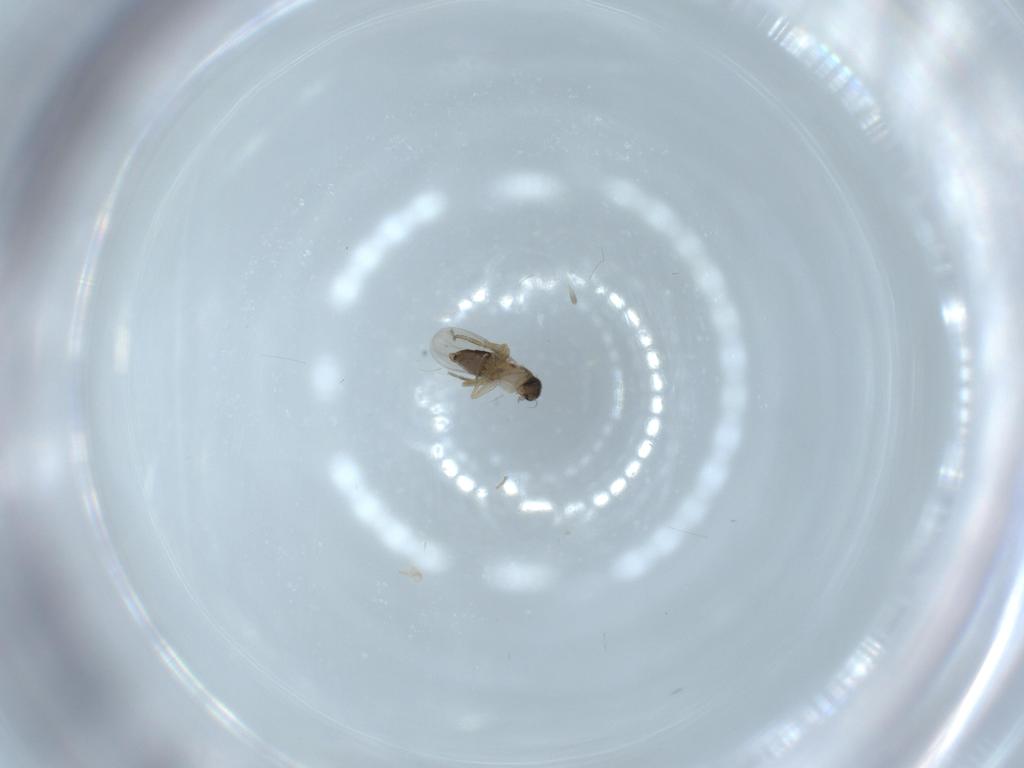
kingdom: Animalia
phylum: Arthropoda
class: Insecta
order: Diptera
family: Phoridae
